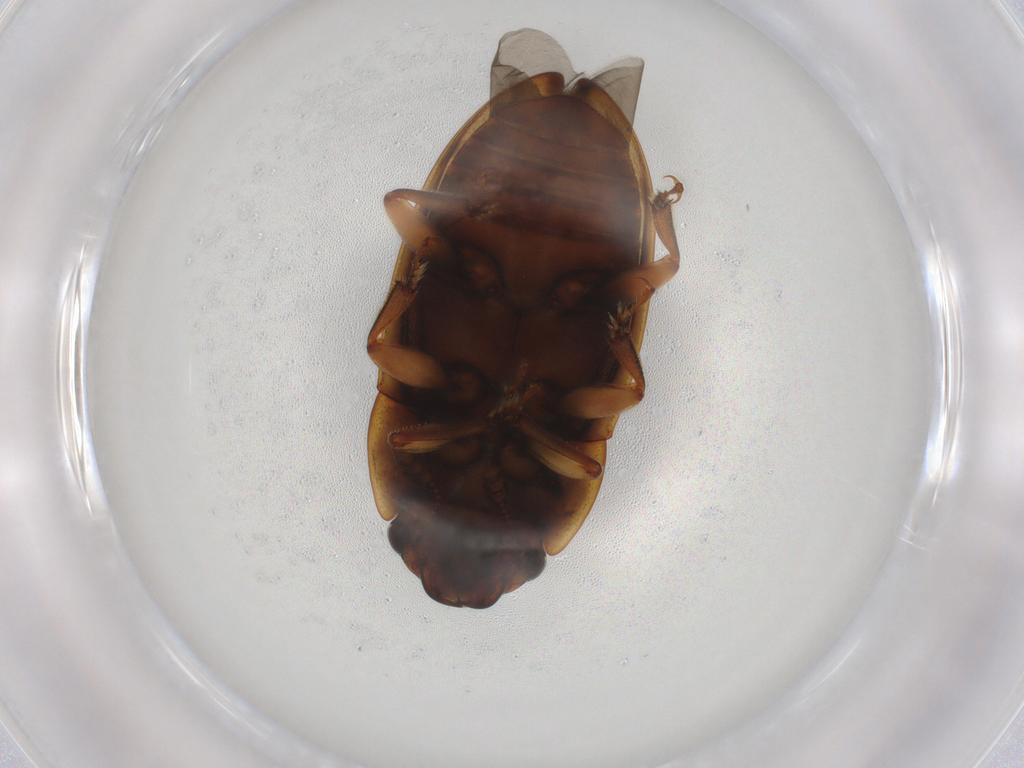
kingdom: Animalia
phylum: Arthropoda
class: Insecta
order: Coleoptera
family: Nitidulidae
